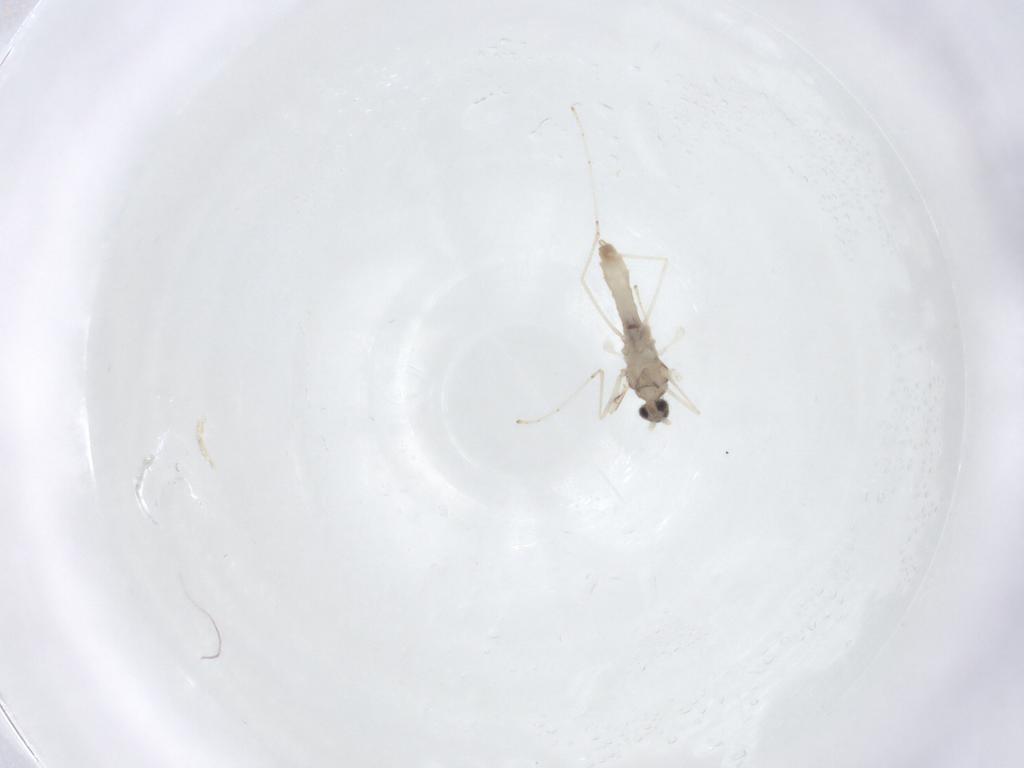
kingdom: Animalia
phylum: Arthropoda
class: Insecta
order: Diptera
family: Cecidomyiidae
